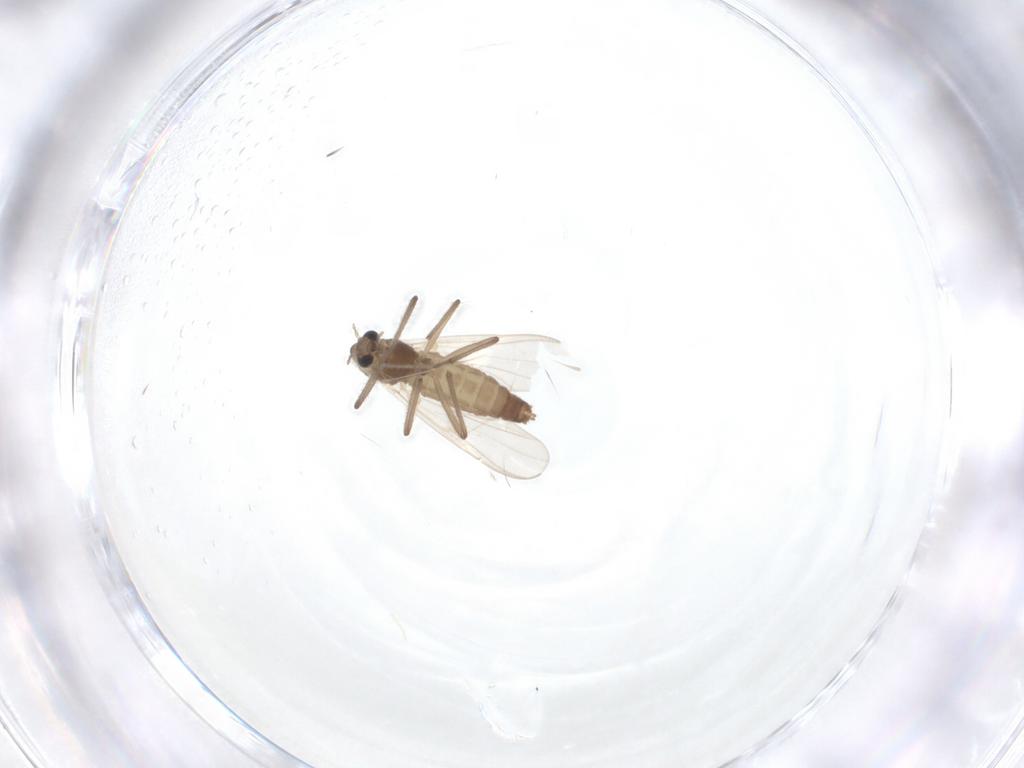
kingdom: Animalia
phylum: Arthropoda
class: Insecta
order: Diptera
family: Chironomidae
